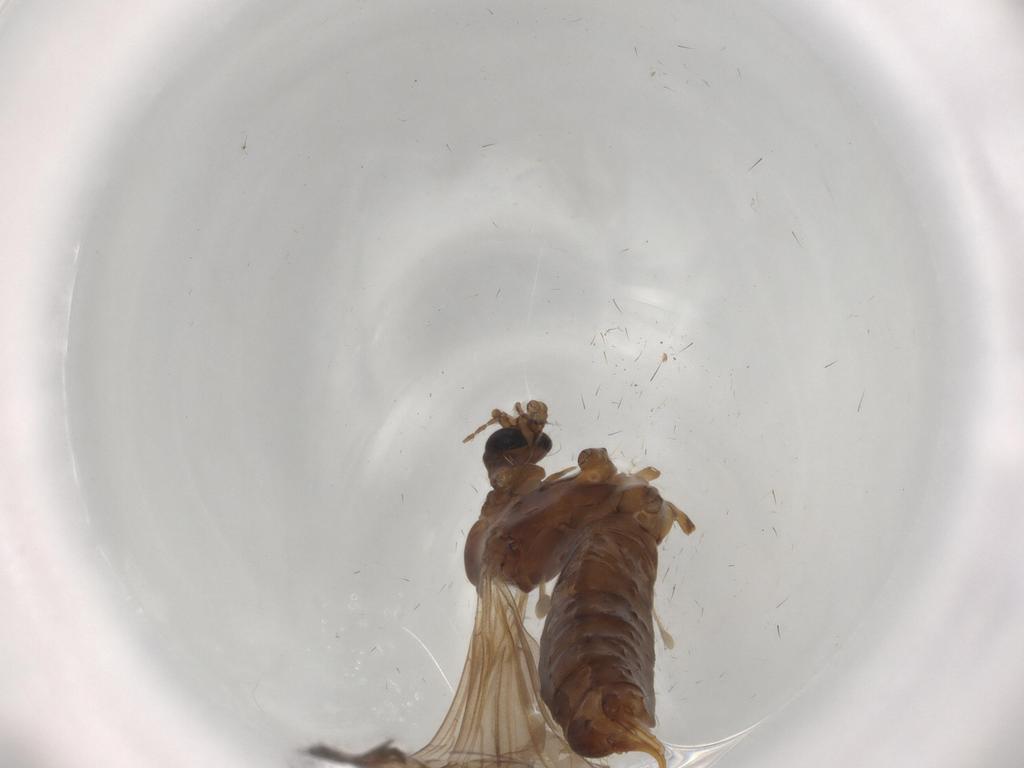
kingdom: Animalia
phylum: Arthropoda
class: Insecta
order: Diptera
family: Limoniidae
